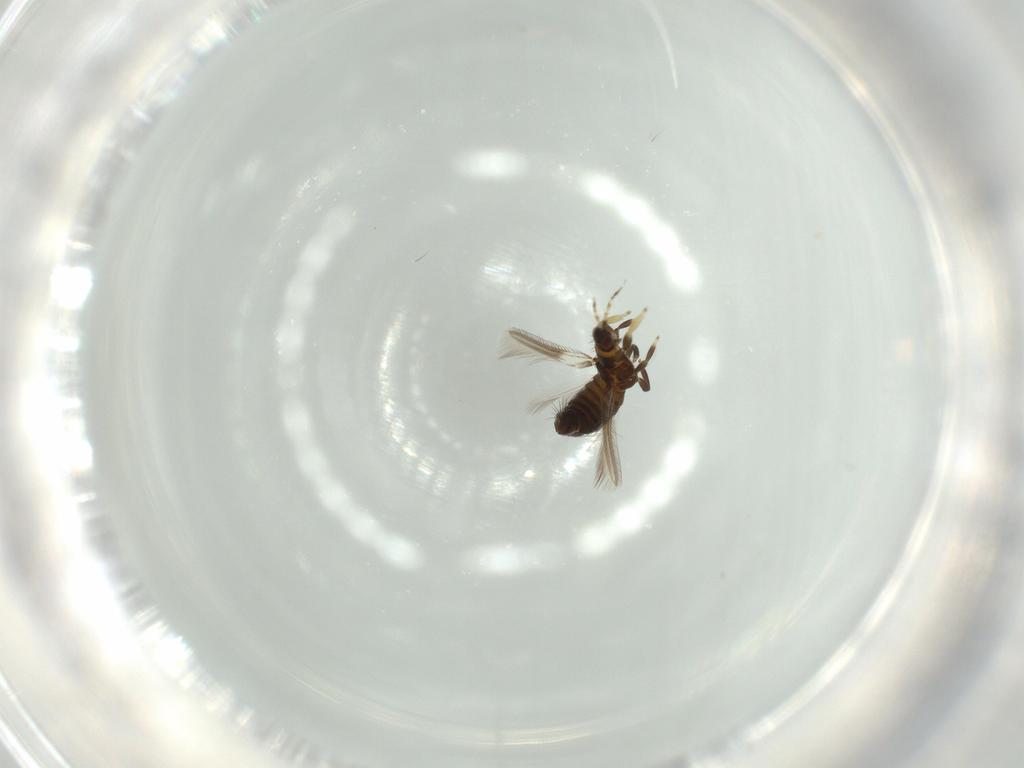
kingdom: Animalia
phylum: Arthropoda
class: Insecta
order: Thysanoptera
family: Thripidae
